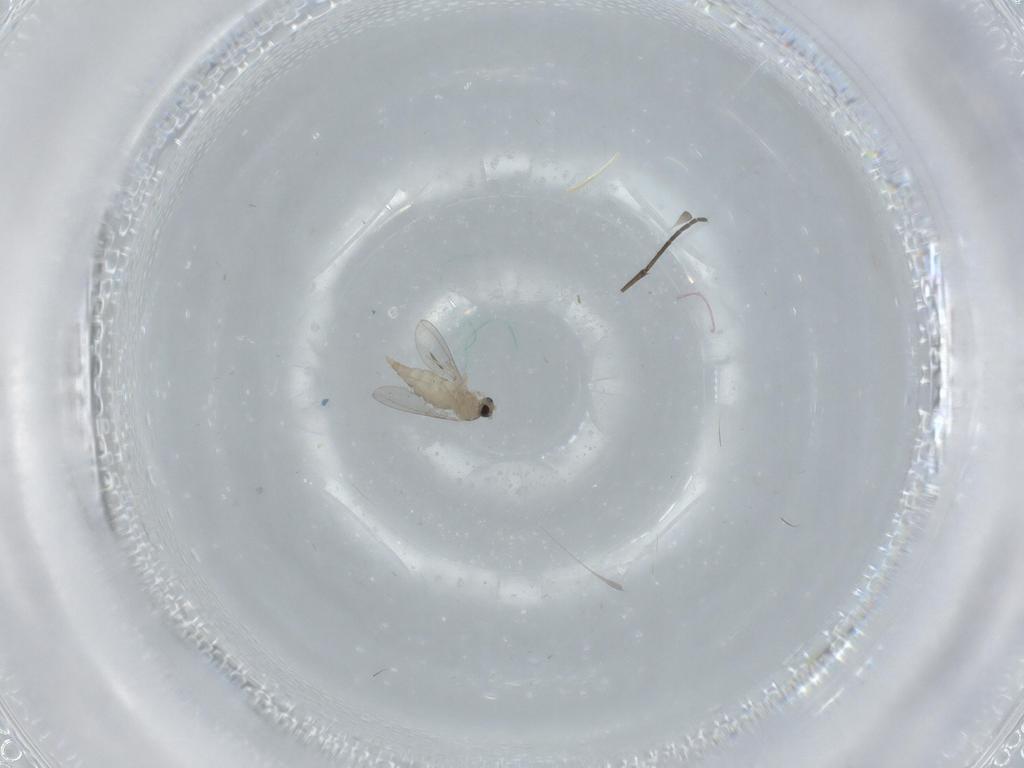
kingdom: Animalia
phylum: Arthropoda
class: Insecta
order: Diptera
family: Cecidomyiidae
